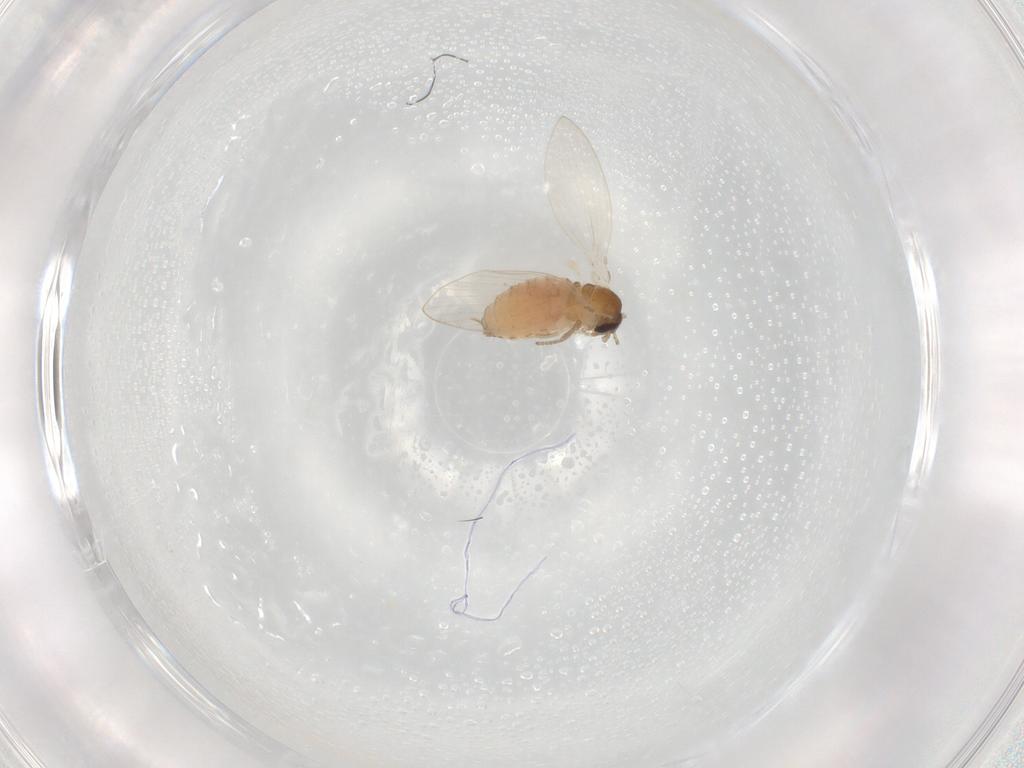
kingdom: Animalia
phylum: Arthropoda
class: Insecta
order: Diptera
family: Psychodidae
